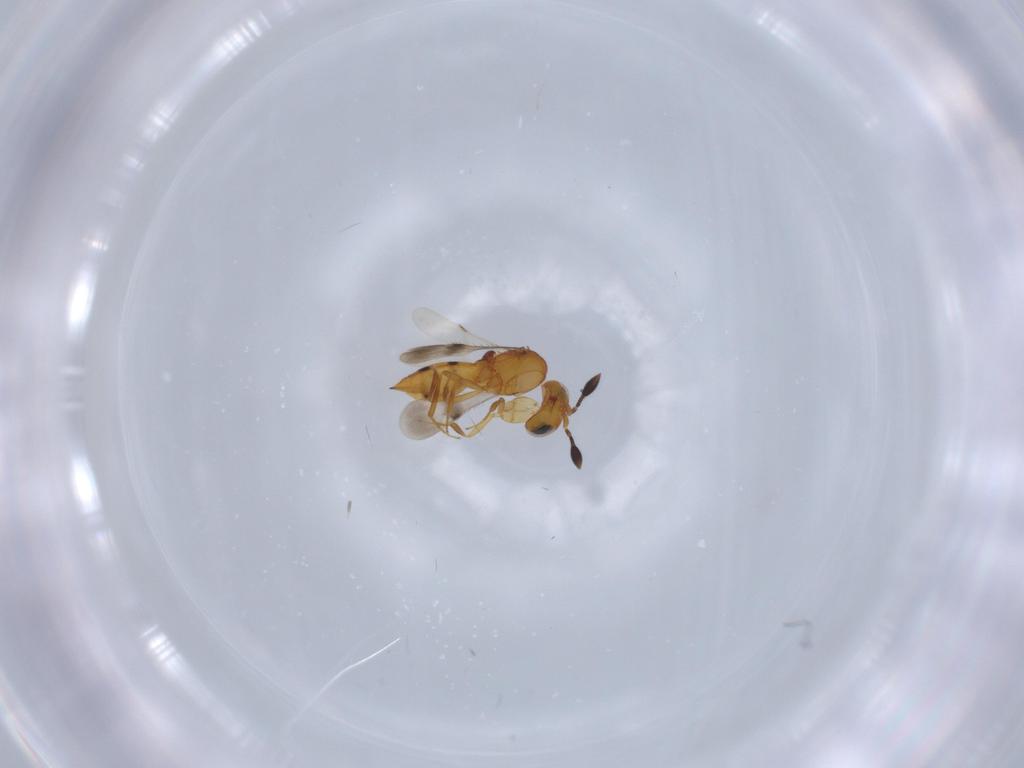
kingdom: Animalia
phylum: Arthropoda
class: Insecta
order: Hymenoptera
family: Scelionidae
